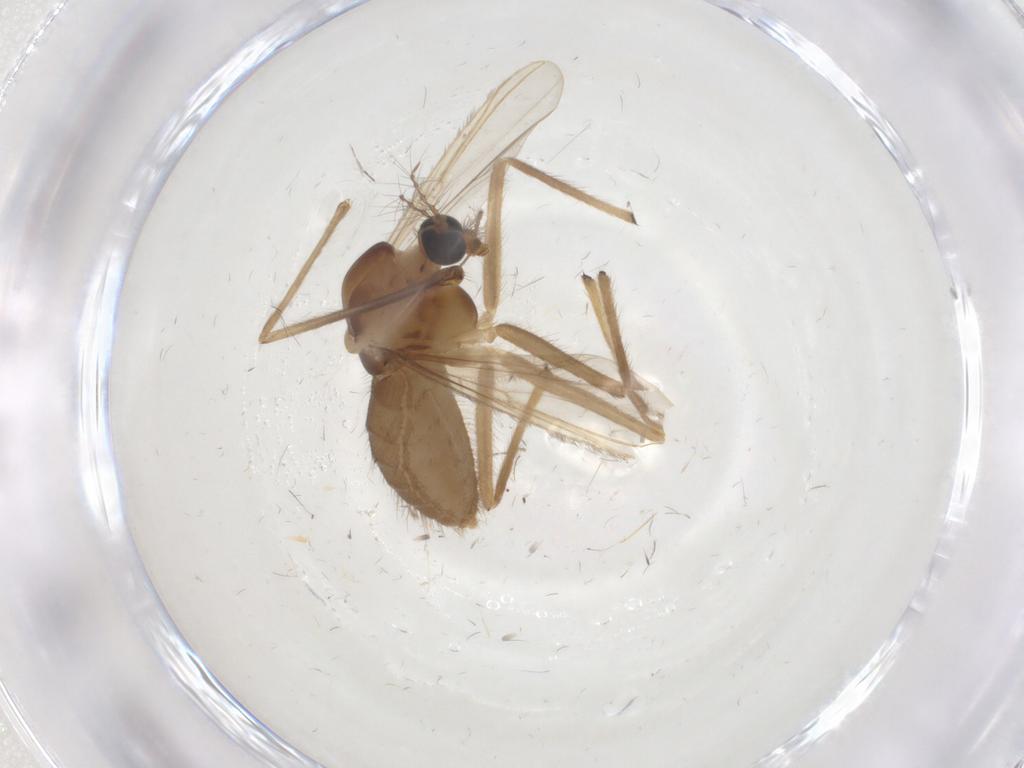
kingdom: Animalia
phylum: Arthropoda
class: Insecta
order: Diptera
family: Chironomidae
